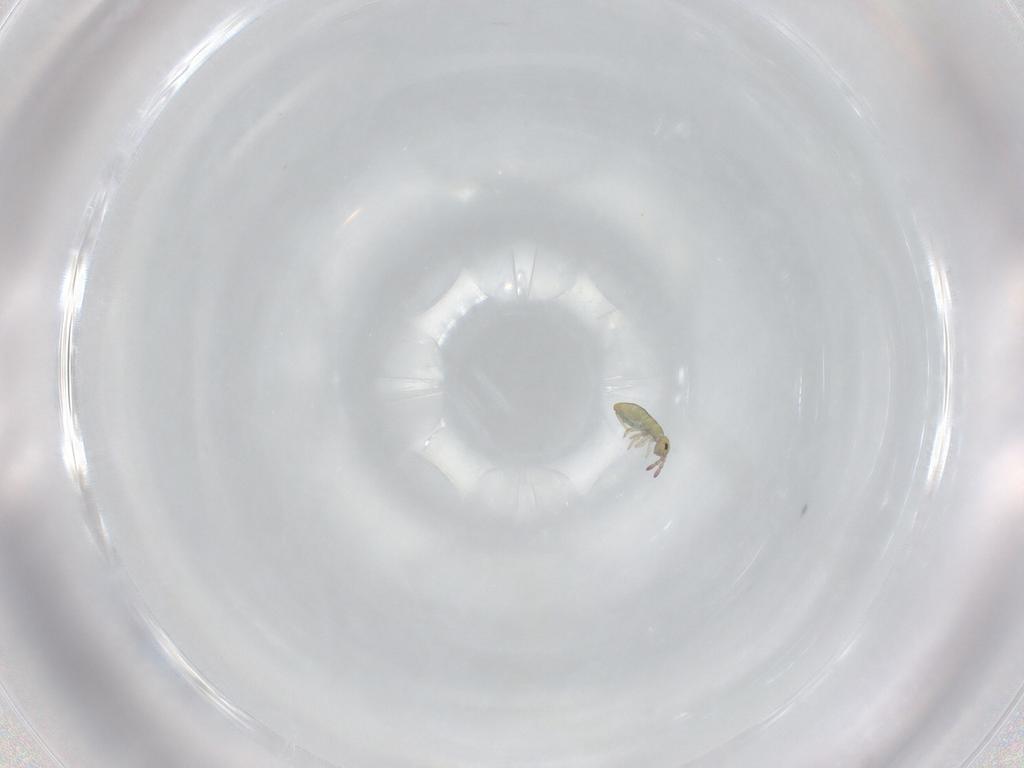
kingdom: Animalia
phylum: Arthropoda
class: Collembola
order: Entomobryomorpha
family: Isotomidae
